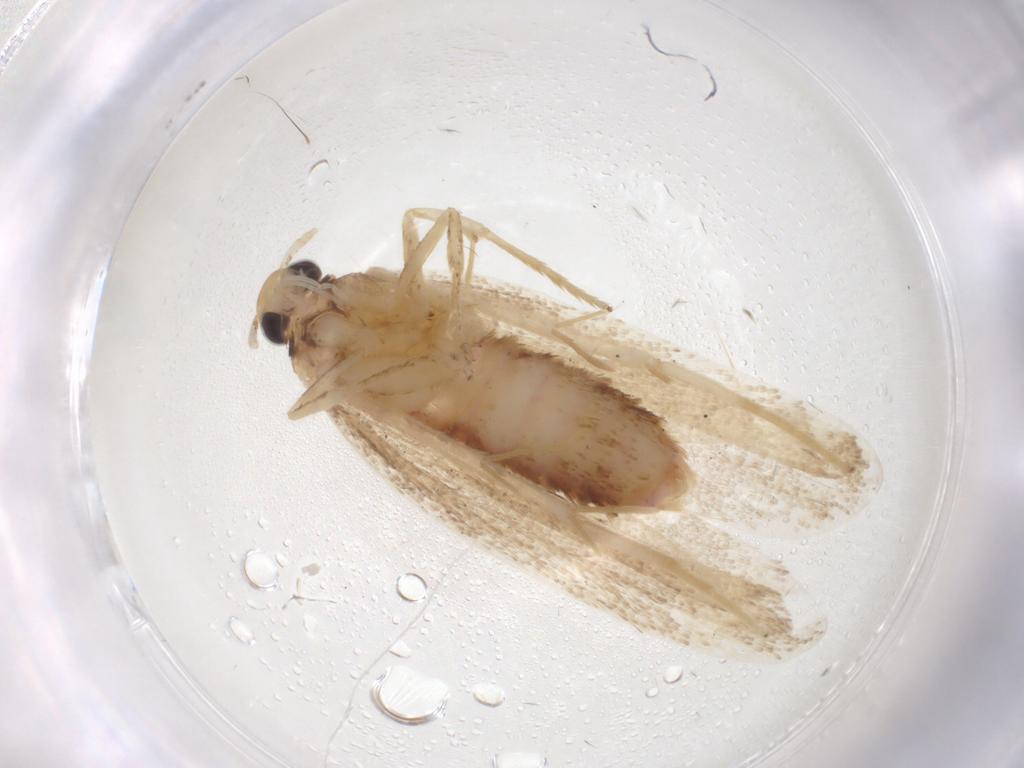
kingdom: Animalia
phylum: Arthropoda
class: Insecta
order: Lepidoptera
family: Lecithoceridae
